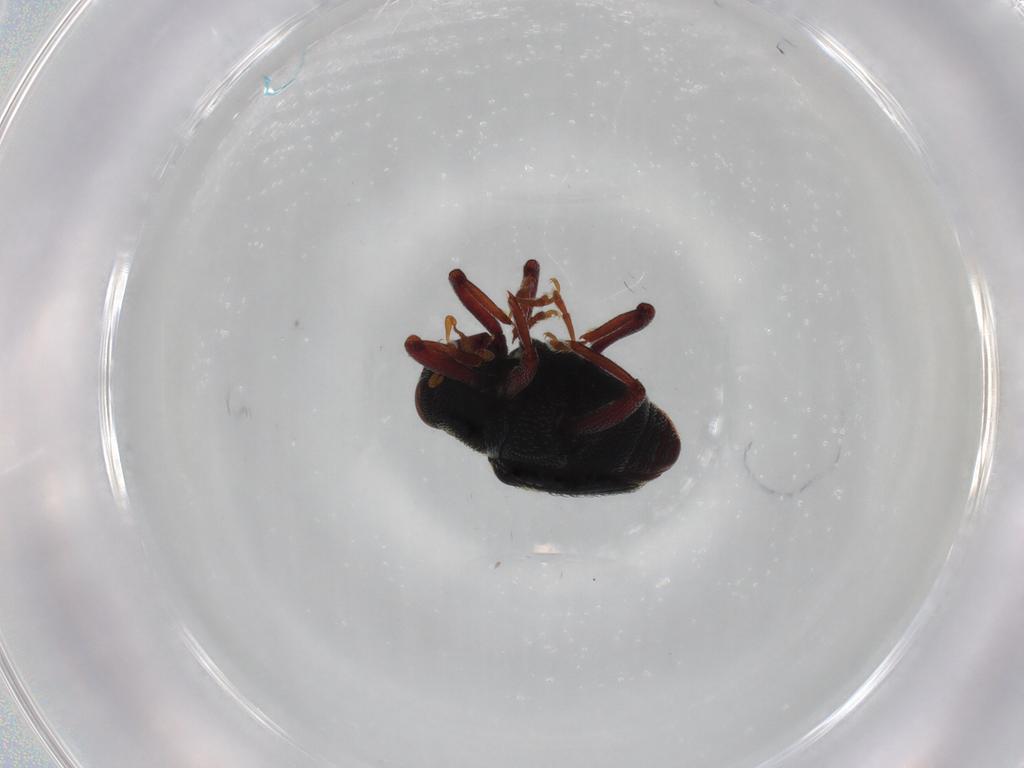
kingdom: Animalia
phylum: Arthropoda
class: Insecta
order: Coleoptera
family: Curculionidae
